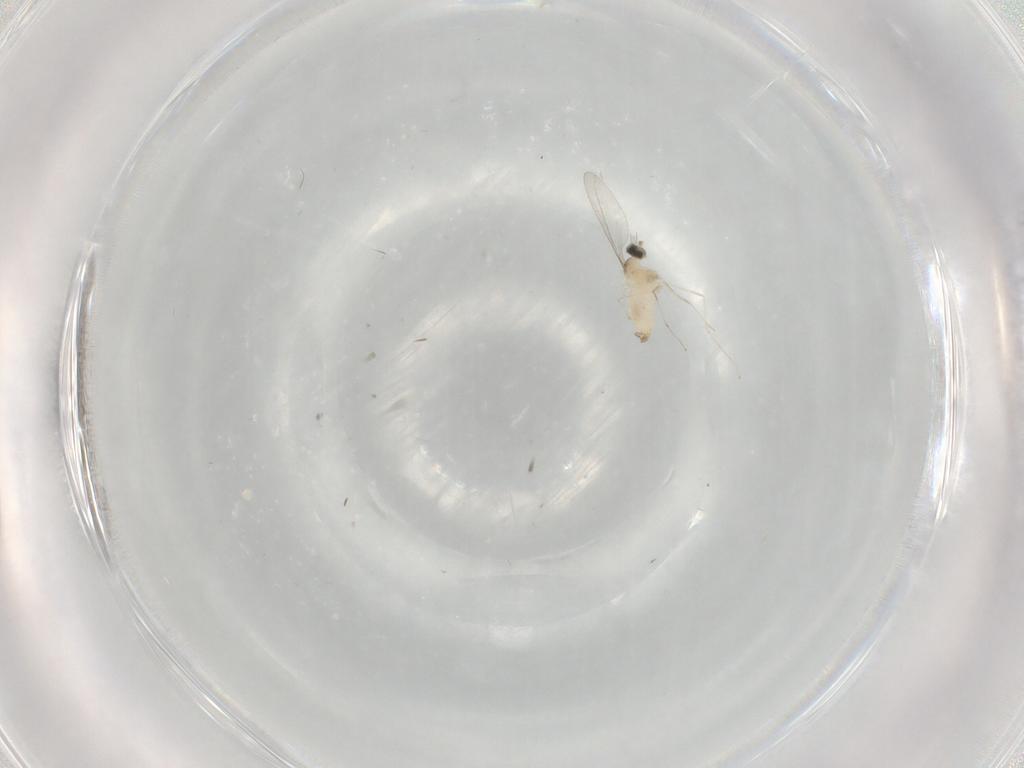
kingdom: Animalia
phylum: Arthropoda
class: Insecta
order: Diptera
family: Cecidomyiidae
